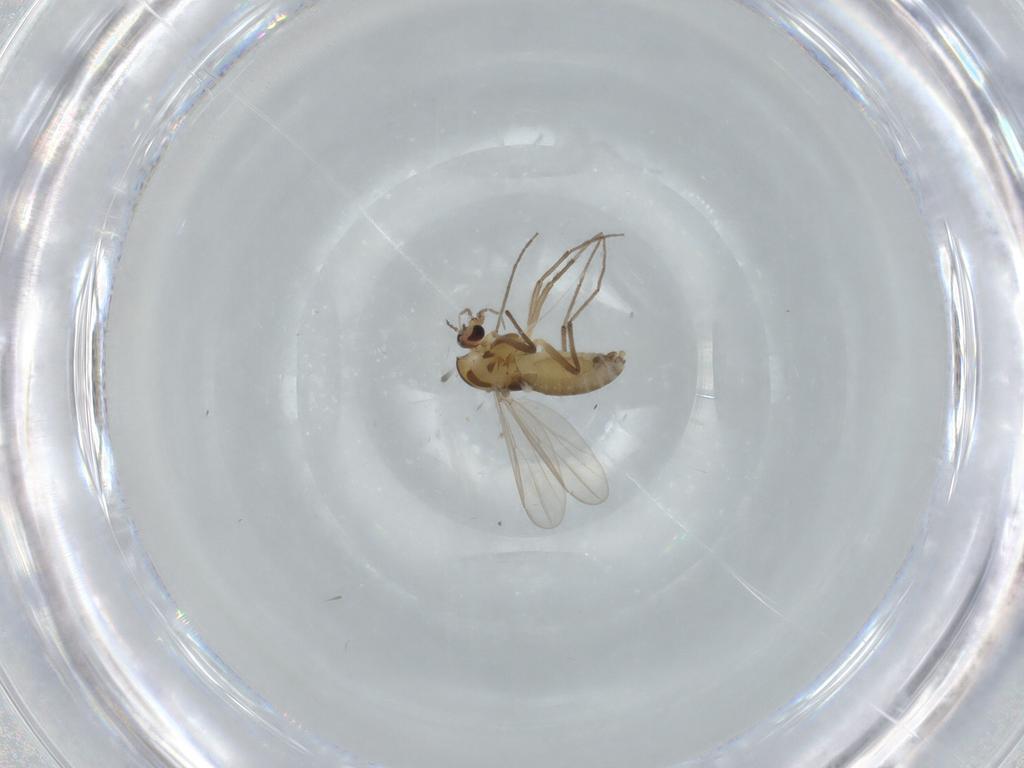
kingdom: Animalia
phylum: Arthropoda
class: Insecta
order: Diptera
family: Chironomidae
